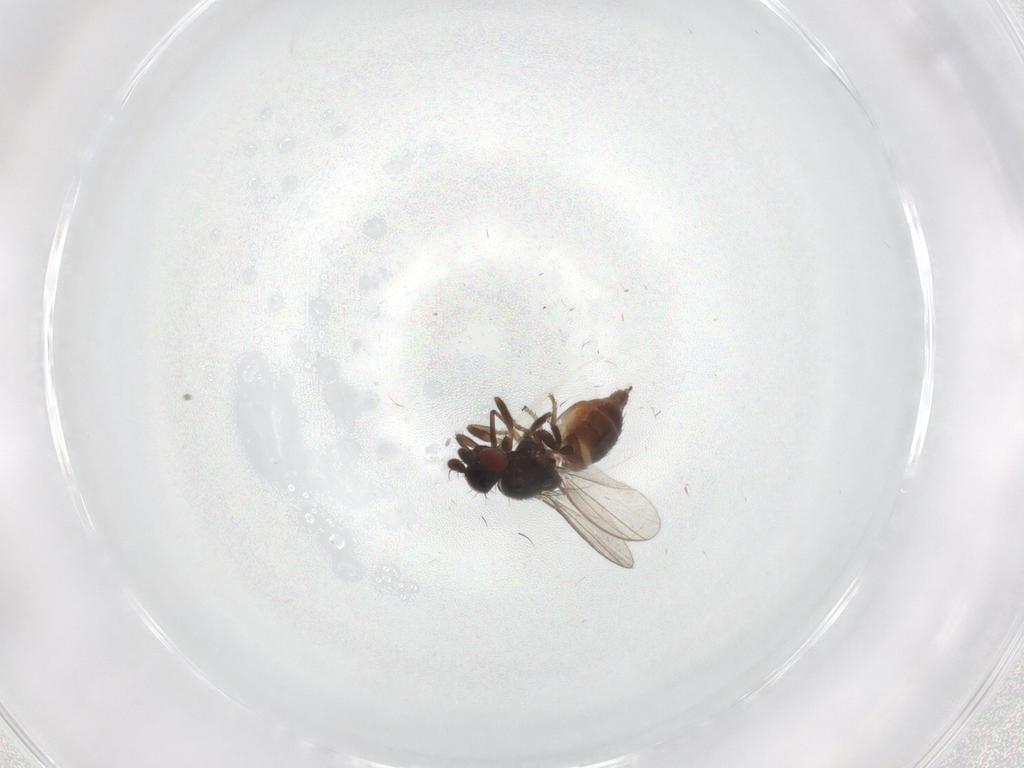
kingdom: Animalia
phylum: Arthropoda
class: Insecta
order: Diptera
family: Milichiidae
